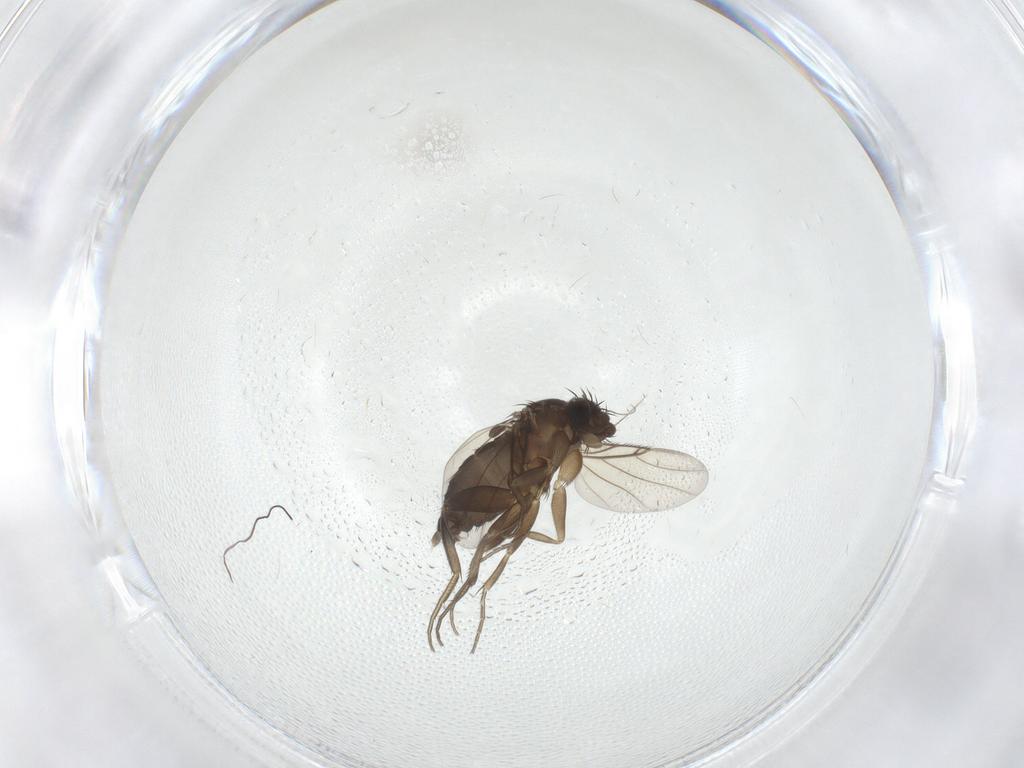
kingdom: Animalia
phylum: Arthropoda
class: Insecta
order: Diptera
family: Phoridae
